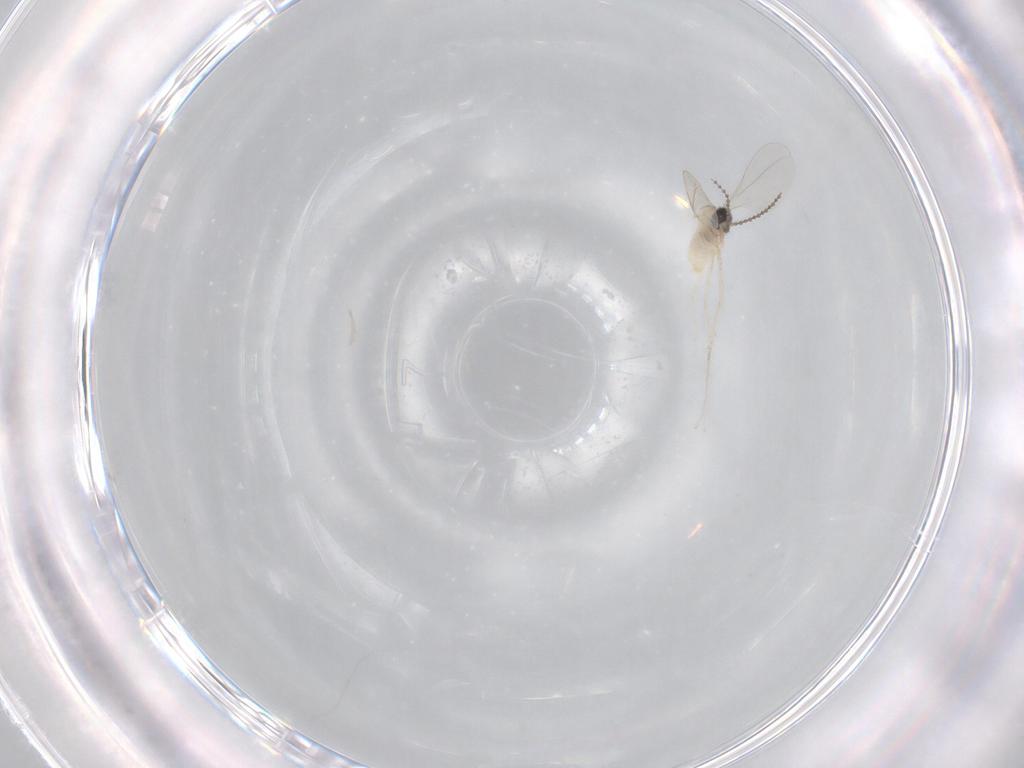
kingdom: Animalia
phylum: Arthropoda
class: Insecta
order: Diptera
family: Cecidomyiidae
